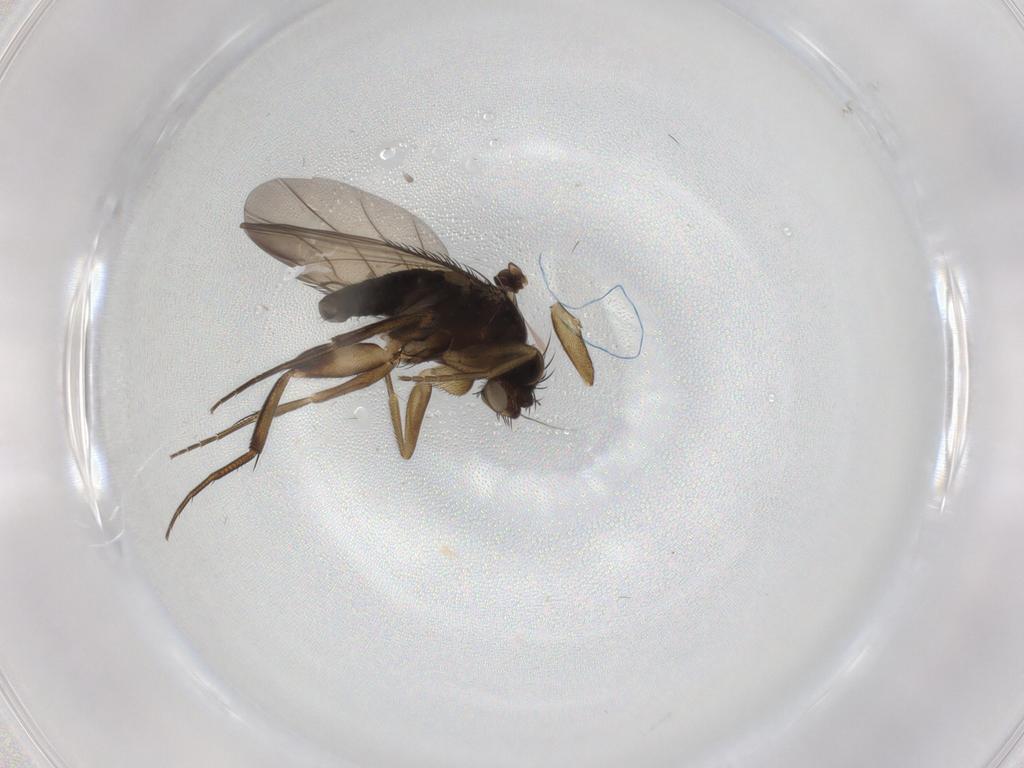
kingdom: Animalia
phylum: Arthropoda
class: Insecta
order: Diptera
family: Phoridae
